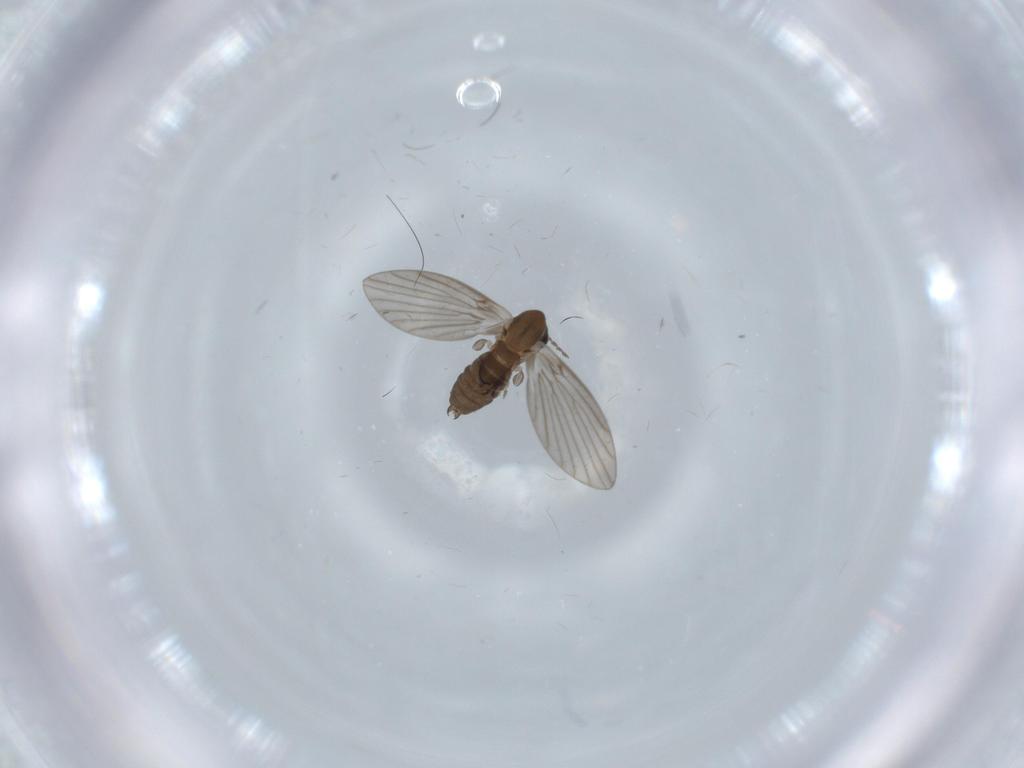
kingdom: Animalia
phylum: Arthropoda
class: Insecta
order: Diptera
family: Psychodidae
